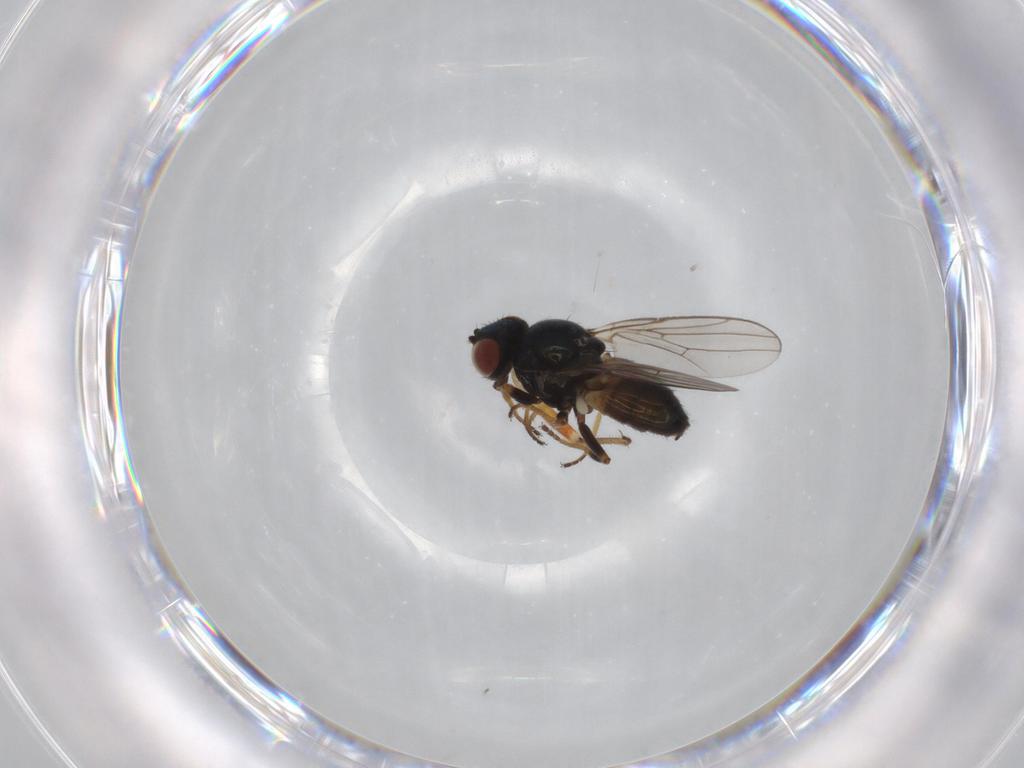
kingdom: Animalia
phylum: Arthropoda
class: Insecta
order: Diptera
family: Chloropidae
